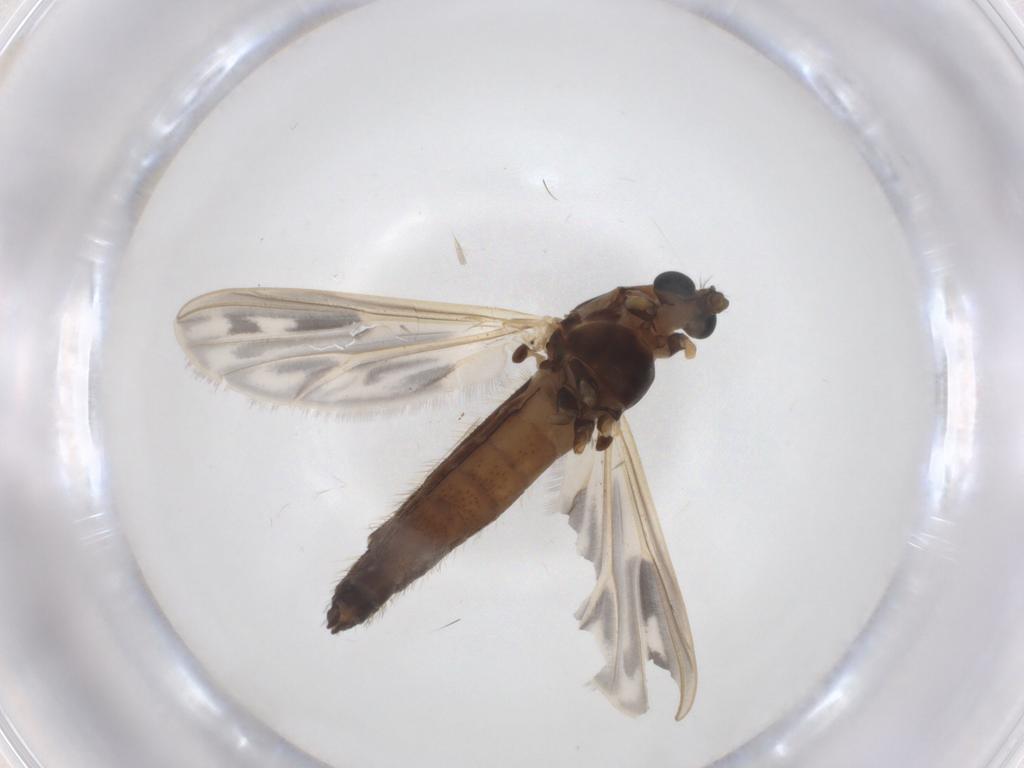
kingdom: Animalia
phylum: Arthropoda
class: Insecta
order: Diptera
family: Chironomidae
